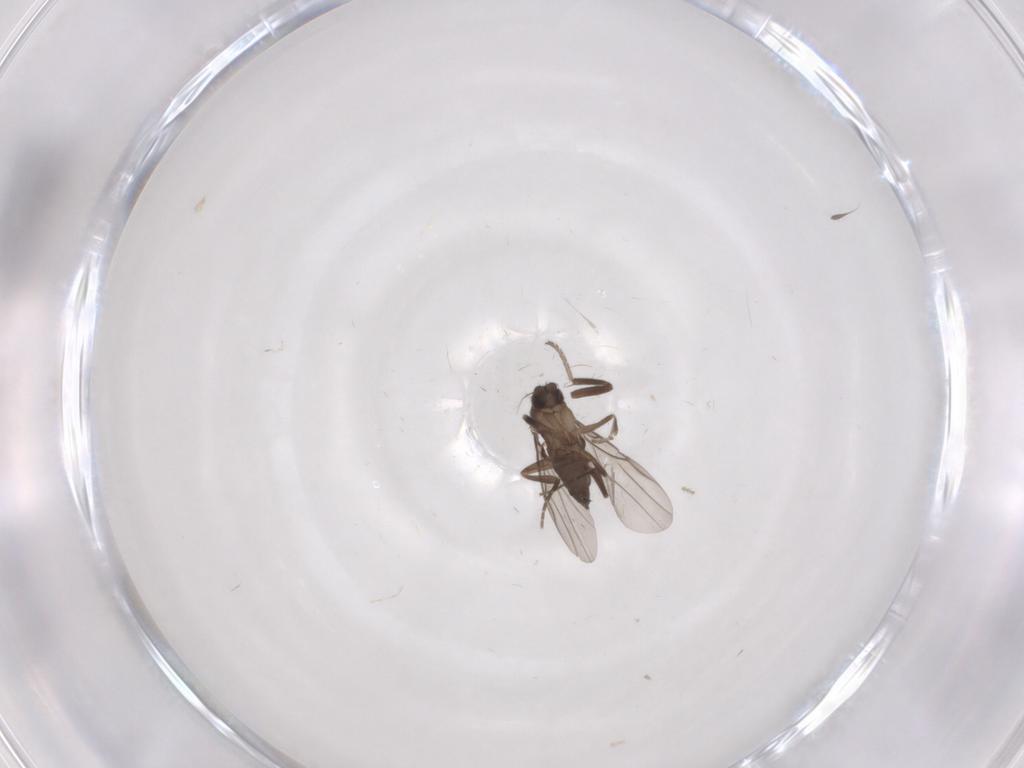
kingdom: Animalia
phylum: Arthropoda
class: Insecta
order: Diptera
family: Milichiidae
